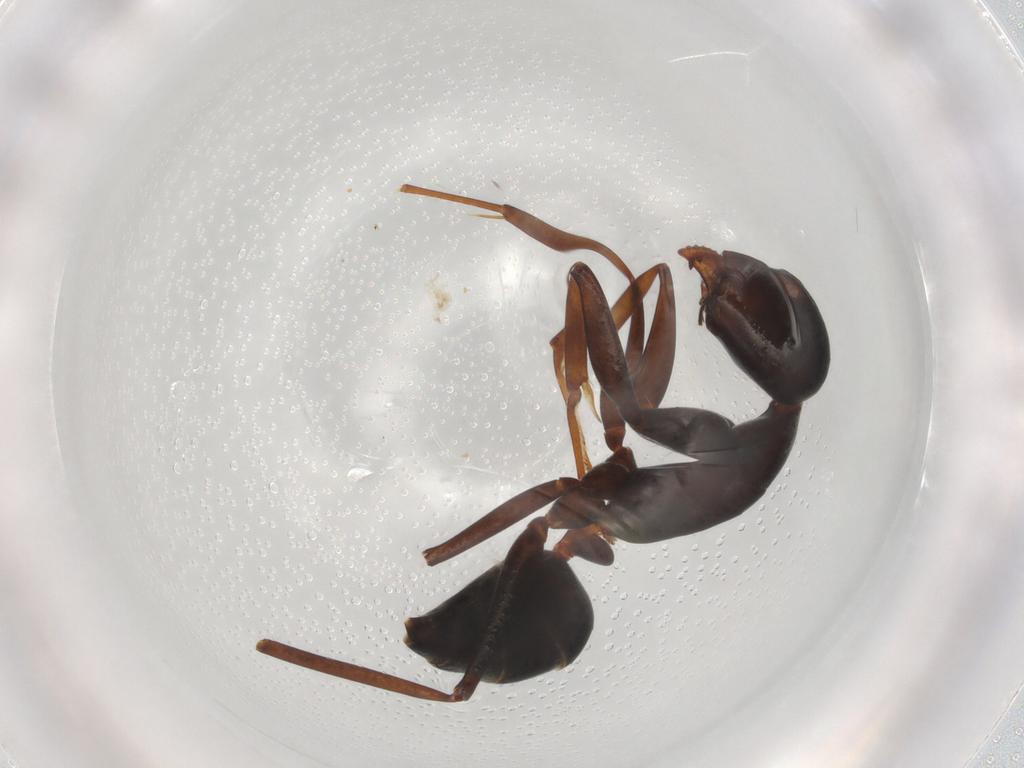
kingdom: Animalia
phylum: Arthropoda
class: Insecta
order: Hymenoptera
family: Formicidae
